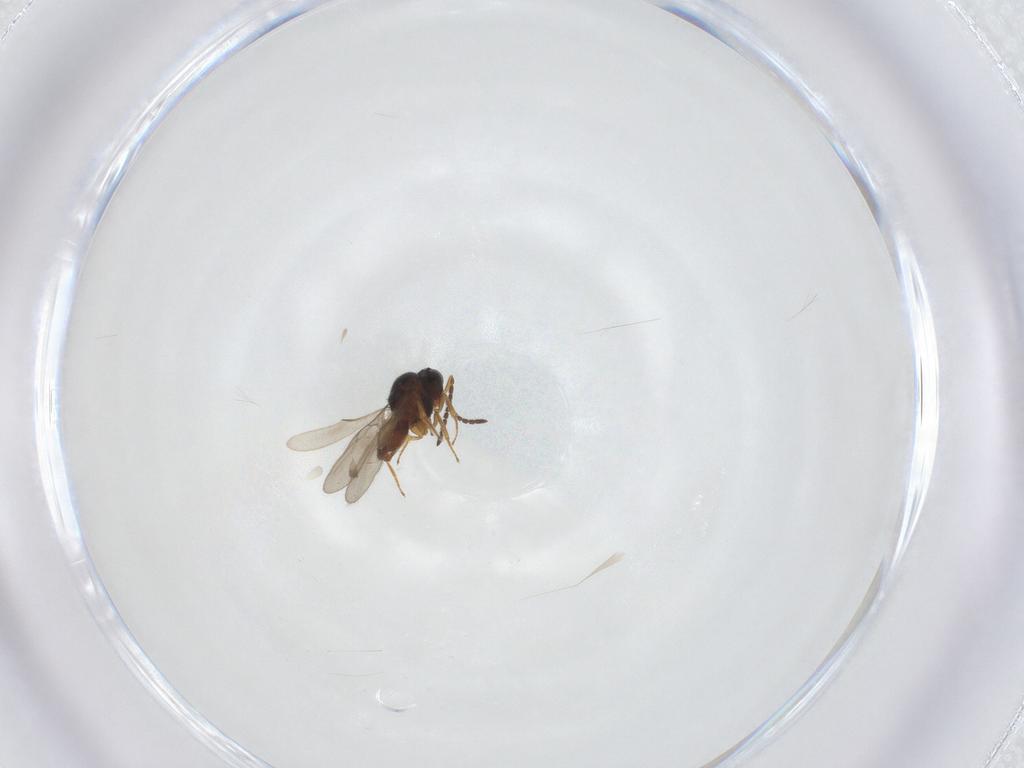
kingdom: Animalia
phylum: Arthropoda
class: Insecta
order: Hymenoptera
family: Scelionidae
